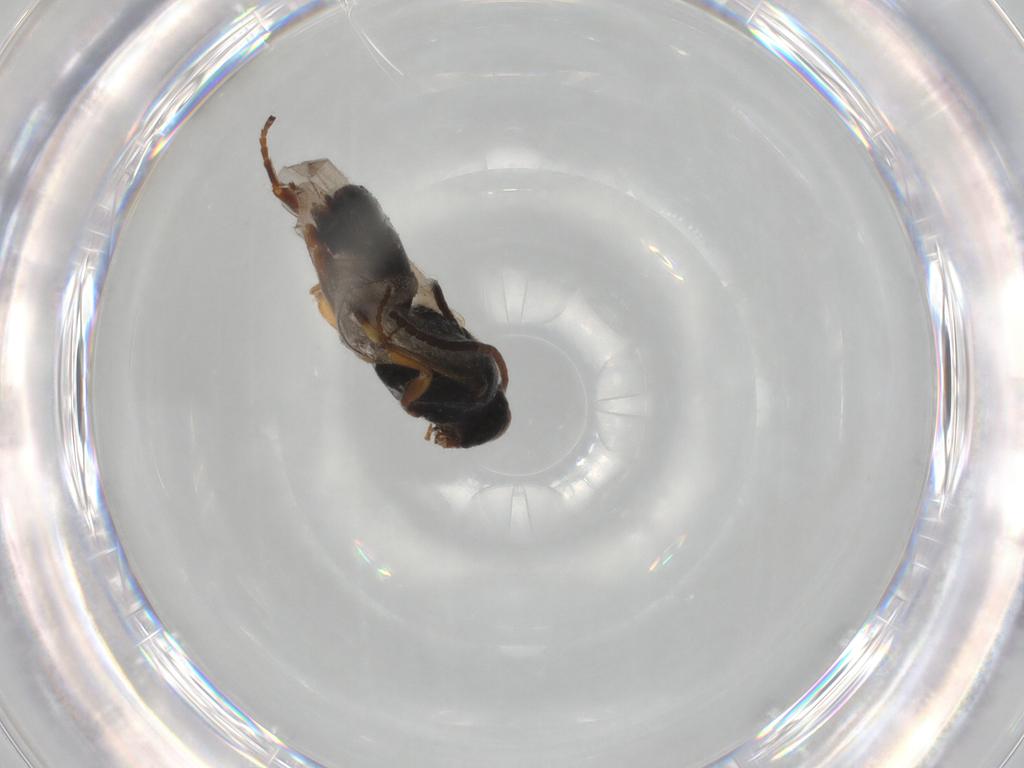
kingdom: Animalia
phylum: Arthropoda
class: Insecta
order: Hymenoptera
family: Braconidae
